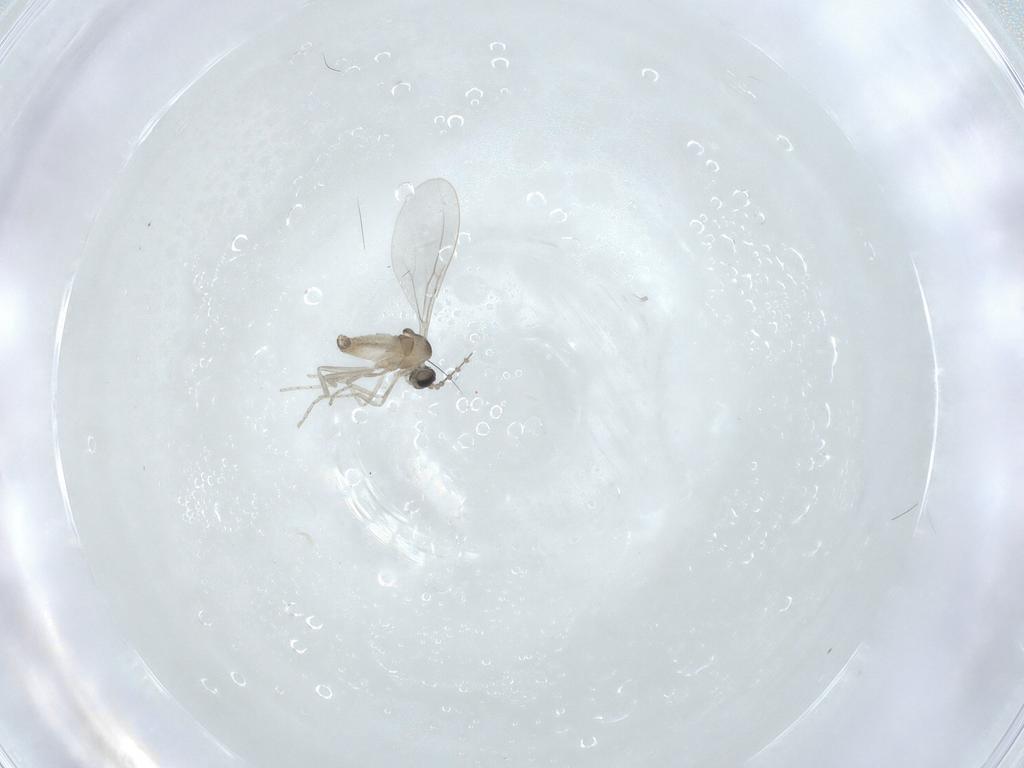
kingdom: Animalia
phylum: Arthropoda
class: Insecta
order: Diptera
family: Cecidomyiidae
